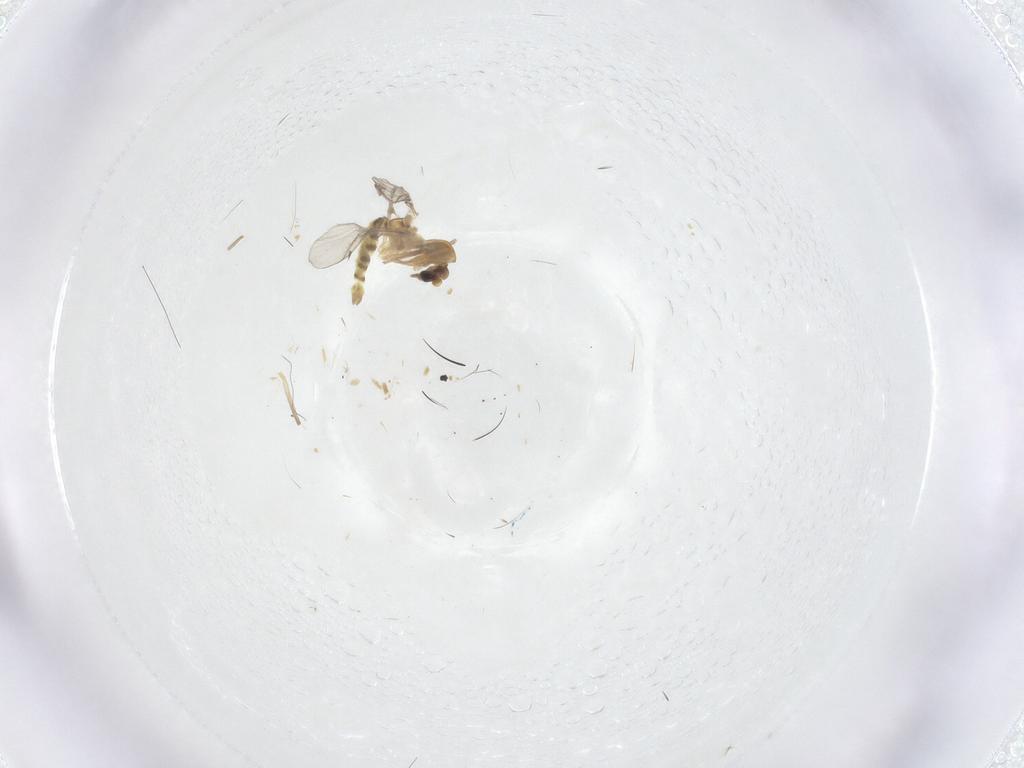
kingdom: Animalia
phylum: Arthropoda
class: Insecta
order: Diptera
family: Chironomidae
